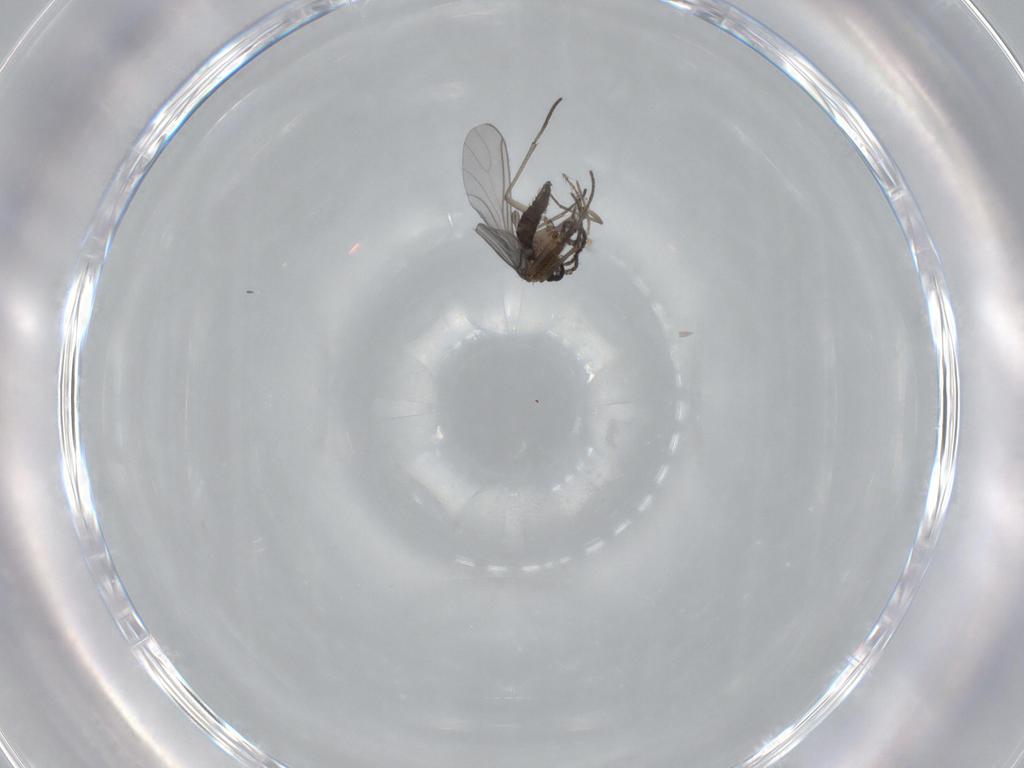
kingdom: Animalia
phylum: Arthropoda
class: Insecta
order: Diptera
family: Sciaridae
